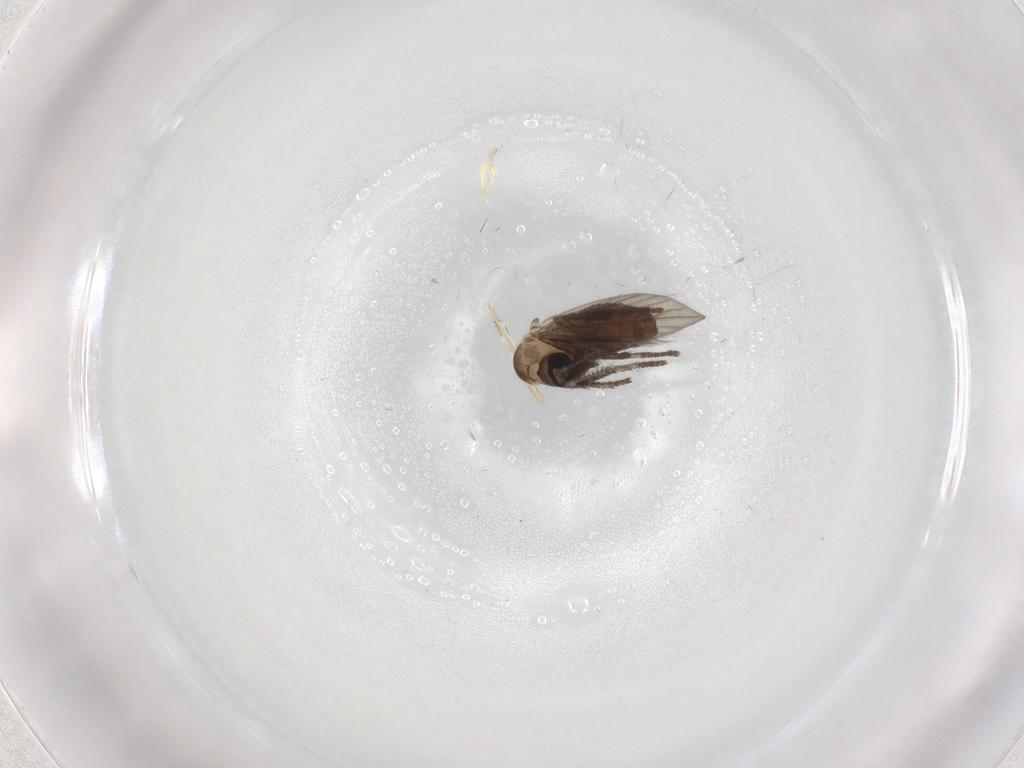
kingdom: Animalia
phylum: Arthropoda
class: Insecta
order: Diptera
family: Psychodidae
